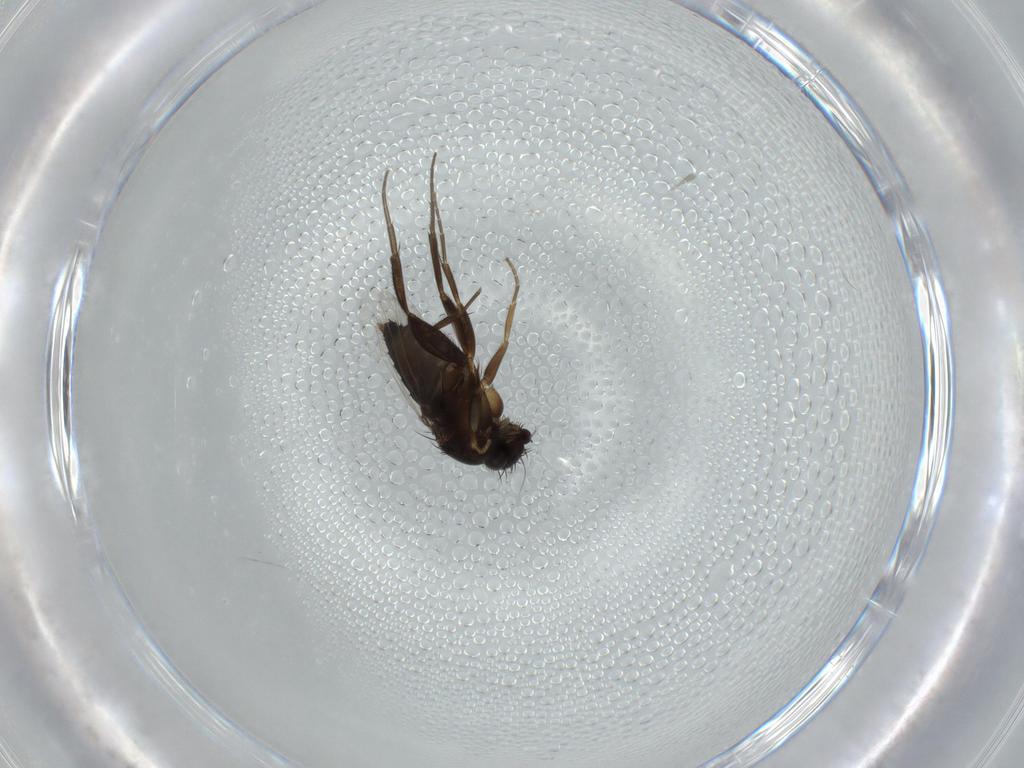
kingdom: Animalia
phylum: Arthropoda
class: Insecta
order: Diptera
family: Phoridae
